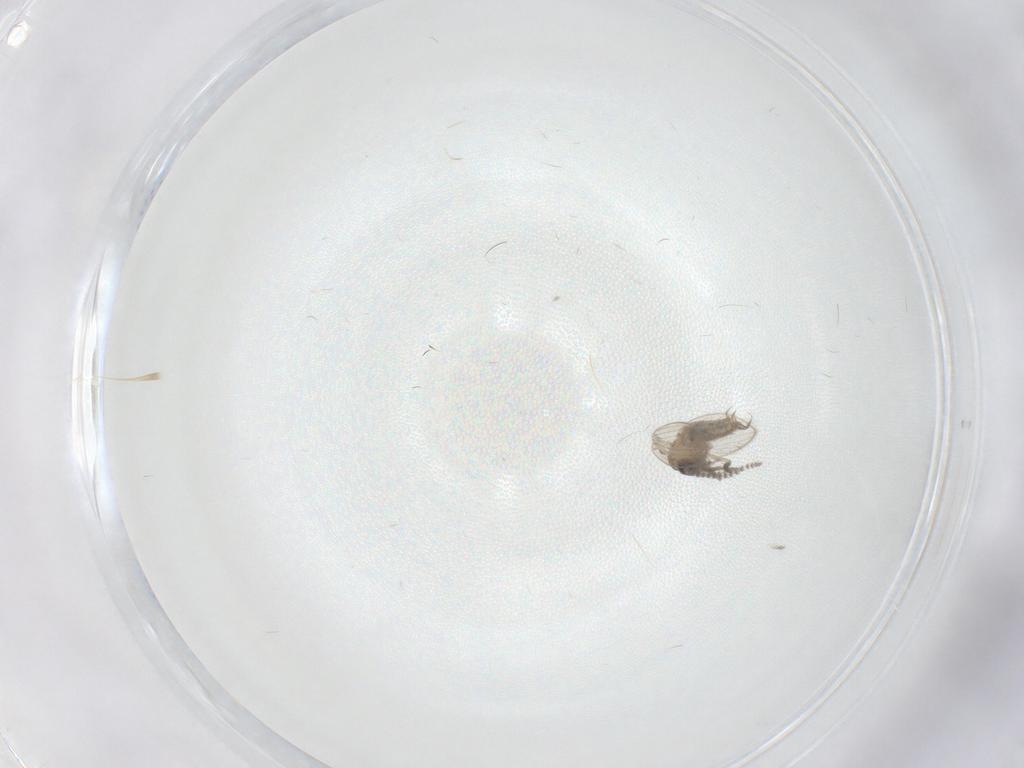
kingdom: Animalia
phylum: Arthropoda
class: Insecta
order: Diptera
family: Psychodidae
